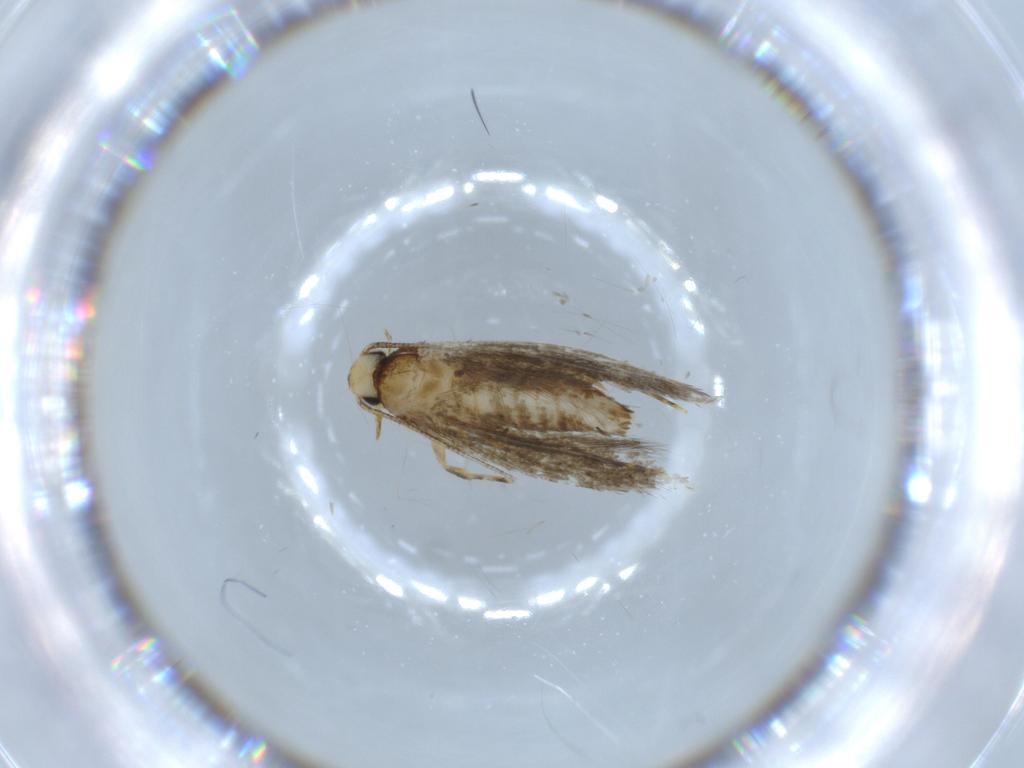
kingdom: Animalia
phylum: Arthropoda
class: Insecta
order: Lepidoptera
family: Tineidae
